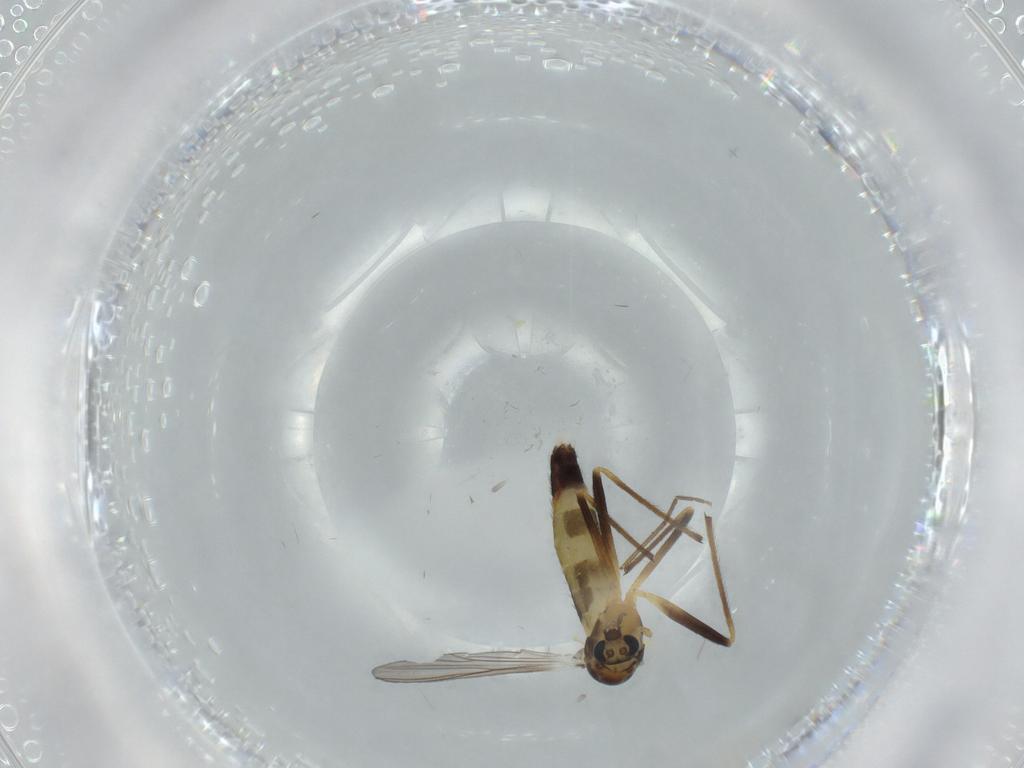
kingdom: Animalia
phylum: Arthropoda
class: Insecta
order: Diptera
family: Chironomidae
